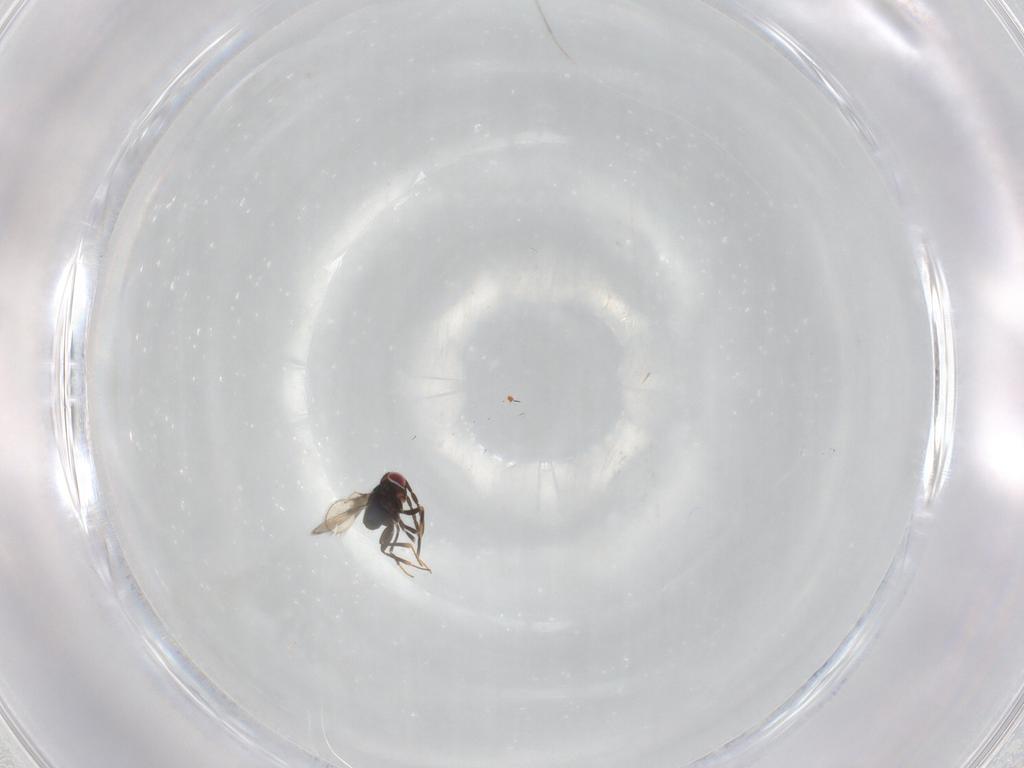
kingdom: Animalia
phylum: Arthropoda
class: Insecta
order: Hymenoptera
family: Azotidae
